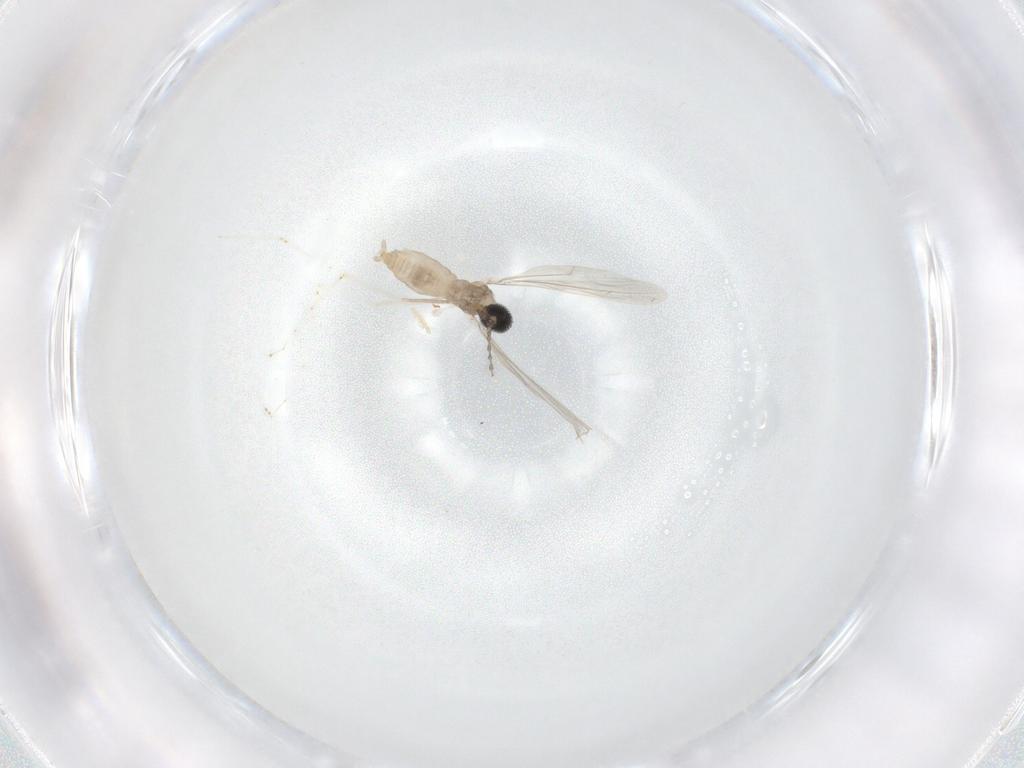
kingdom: Animalia
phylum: Arthropoda
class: Insecta
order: Diptera
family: Cecidomyiidae
